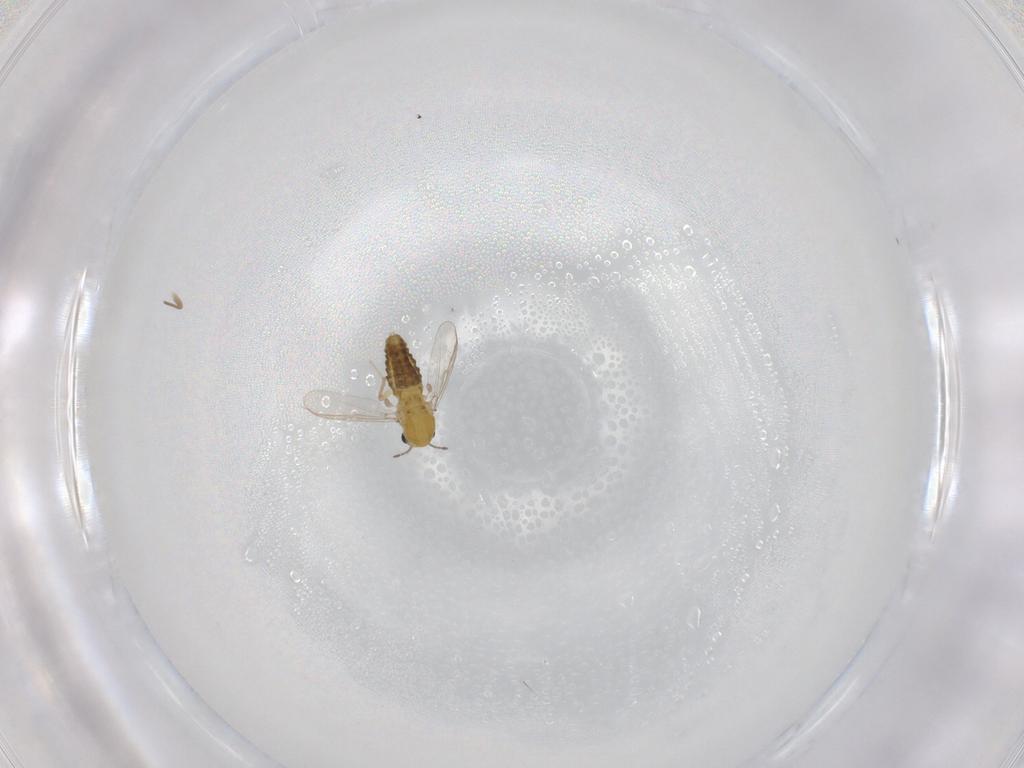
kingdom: Animalia
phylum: Arthropoda
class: Insecta
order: Diptera
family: Chironomidae
